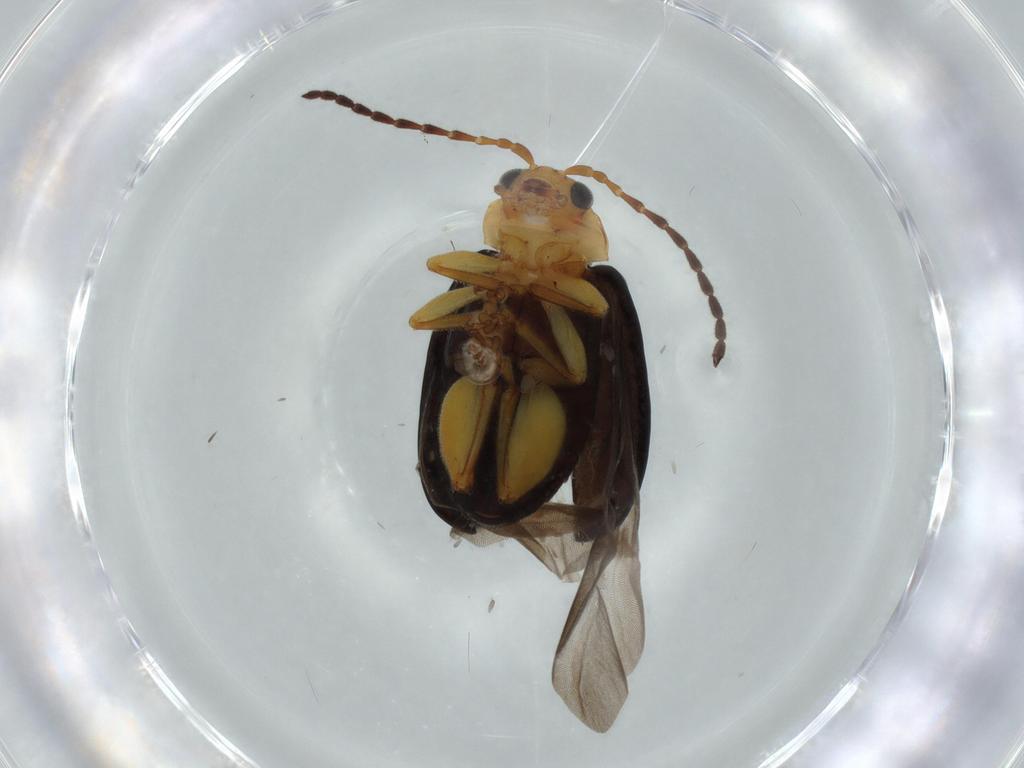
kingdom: Animalia
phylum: Arthropoda
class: Insecta
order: Coleoptera
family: Chrysomelidae
